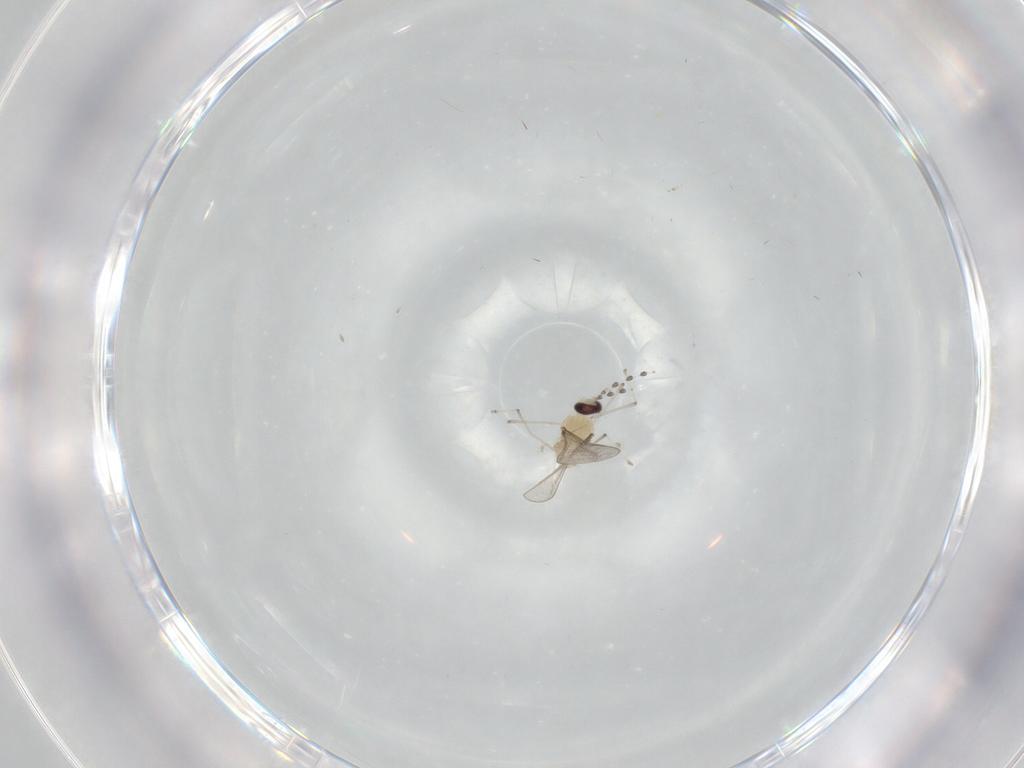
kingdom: Animalia
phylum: Arthropoda
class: Insecta
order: Diptera
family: Cecidomyiidae
